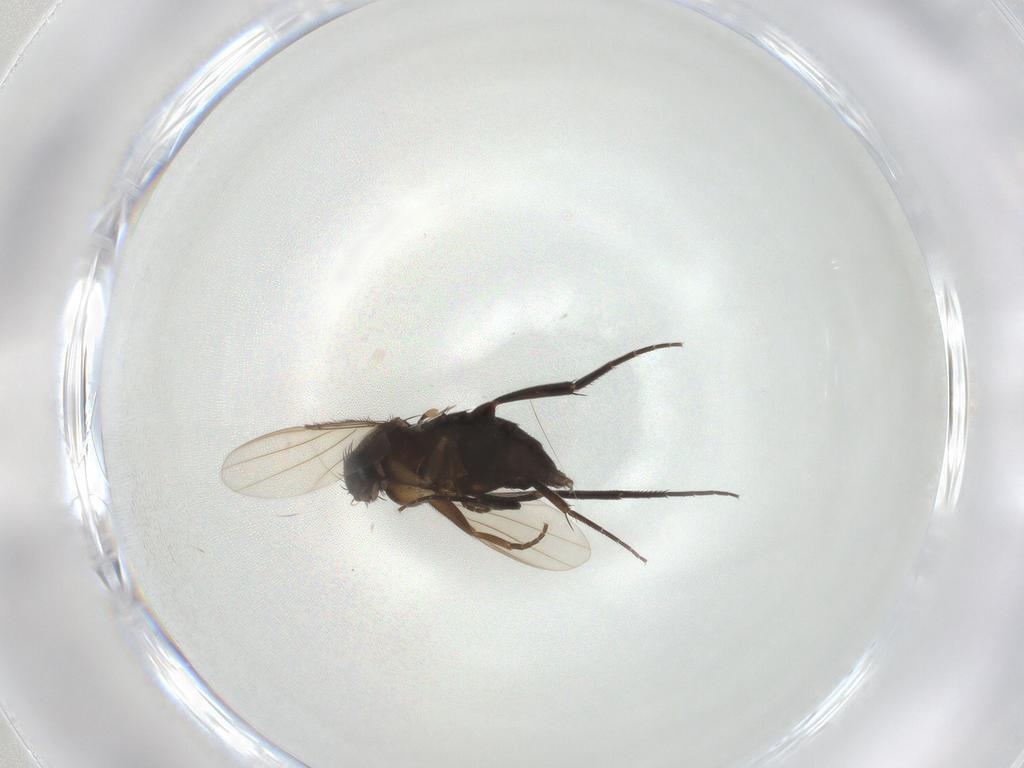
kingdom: Animalia
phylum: Arthropoda
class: Insecta
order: Diptera
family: Phoridae
